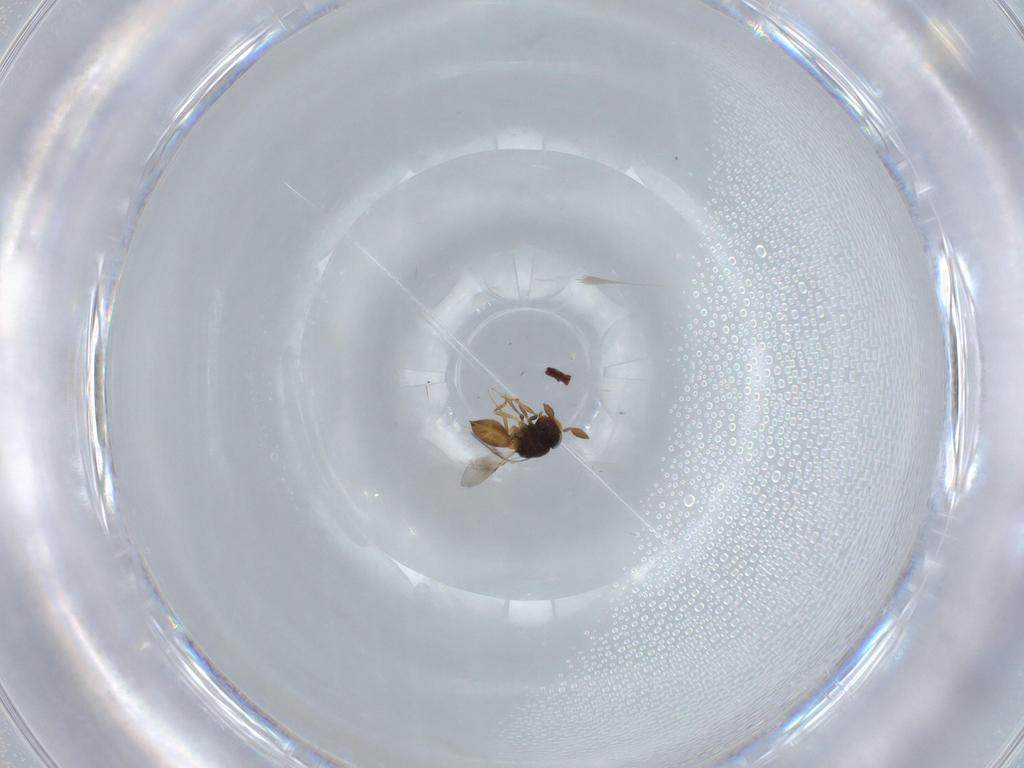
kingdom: Animalia
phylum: Arthropoda
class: Insecta
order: Hymenoptera
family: Scelionidae
